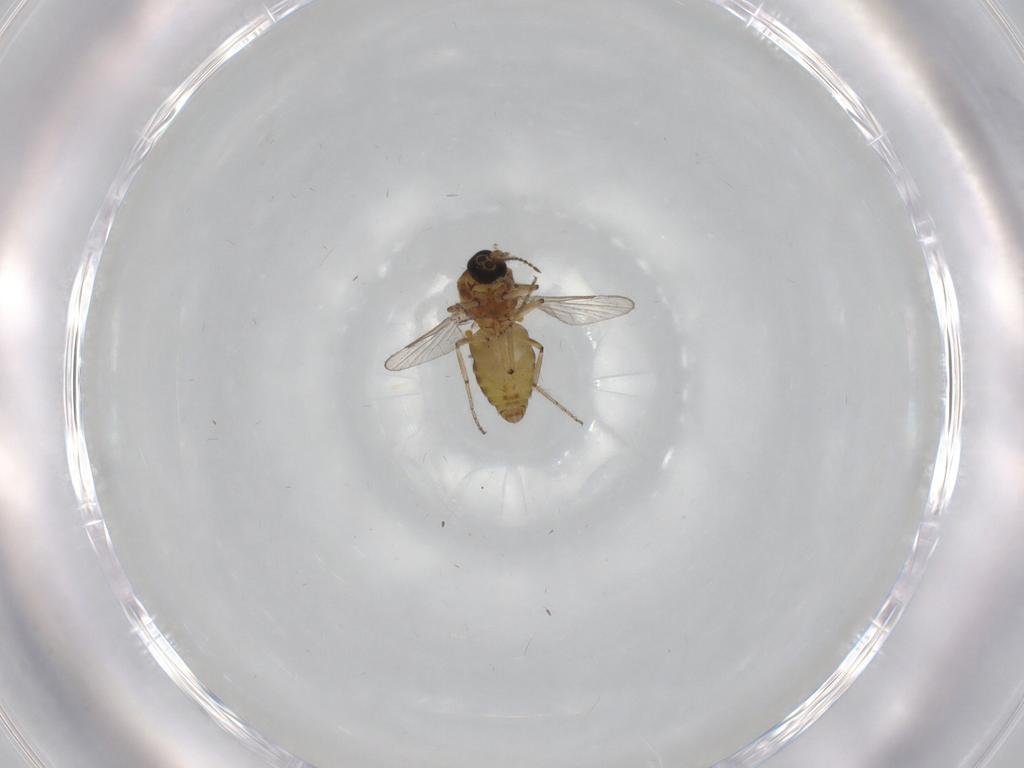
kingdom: Animalia
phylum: Arthropoda
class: Insecta
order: Diptera
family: Ceratopogonidae
